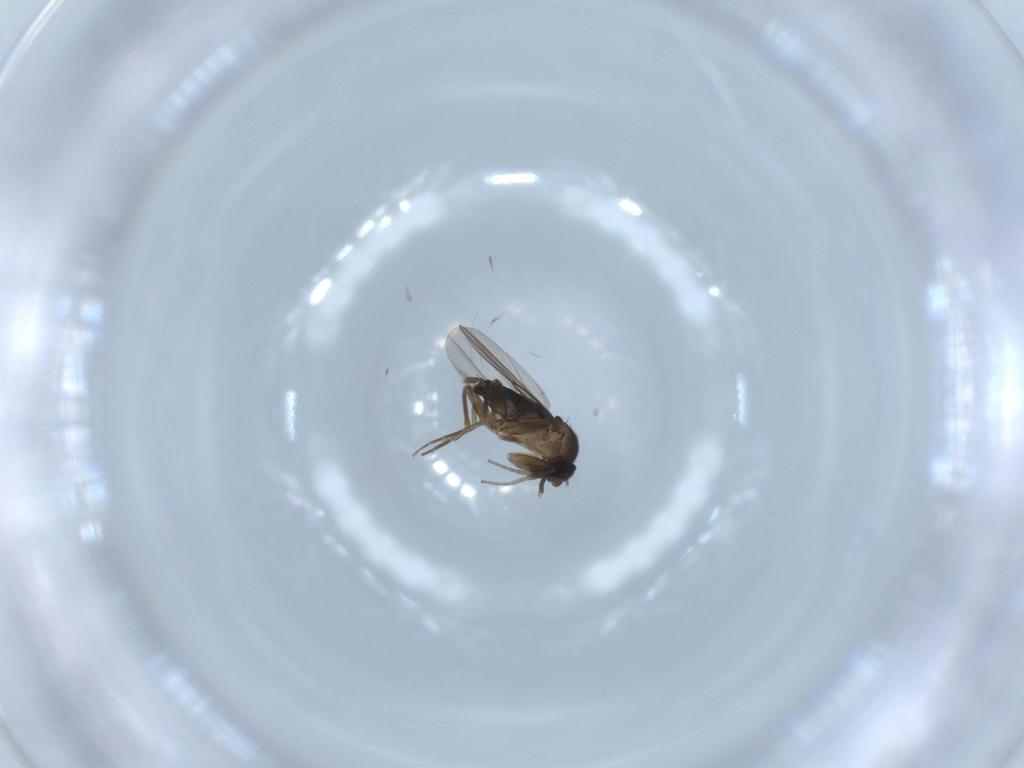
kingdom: Animalia
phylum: Arthropoda
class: Insecta
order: Diptera
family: Phoridae
